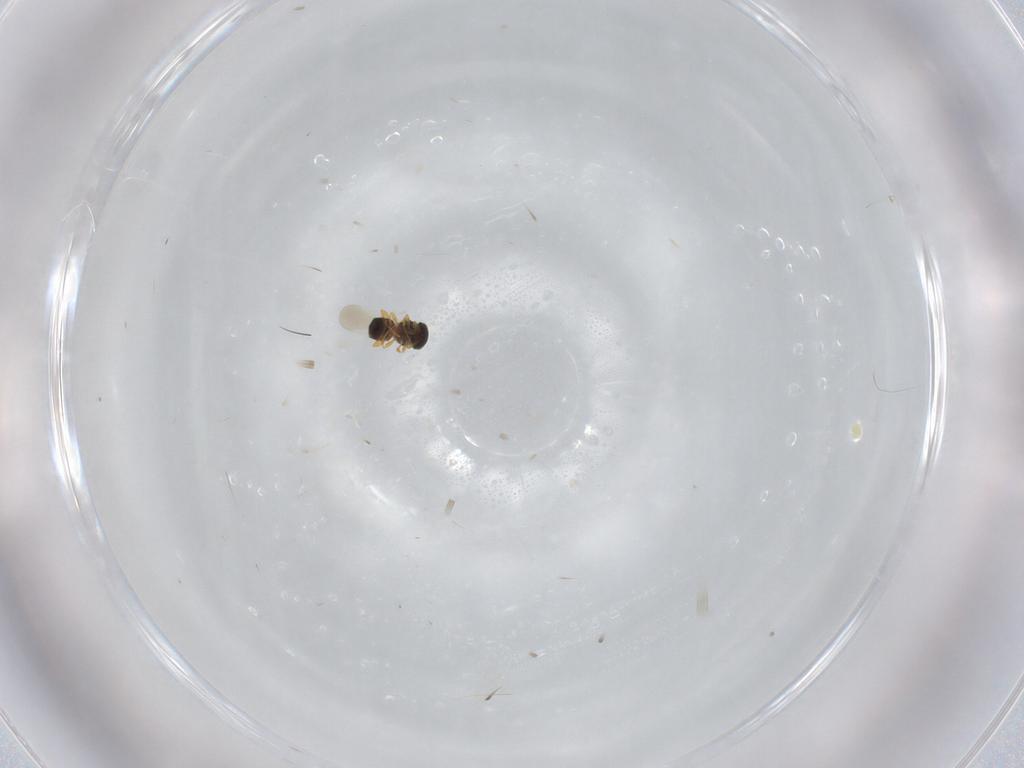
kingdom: Animalia
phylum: Arthropoda
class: Insecta
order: Hymenoptera
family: Platygastridae
